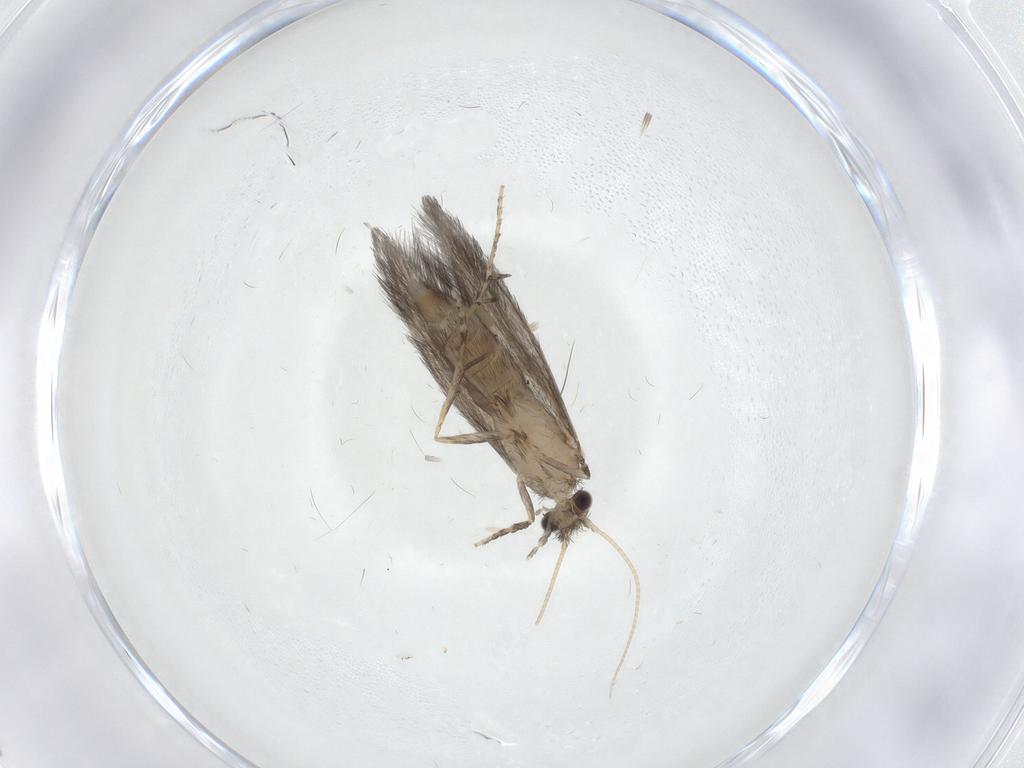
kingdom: Animalia
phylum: Arthropoda
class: Insecta
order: Trichoptera
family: Hydroptilidae
